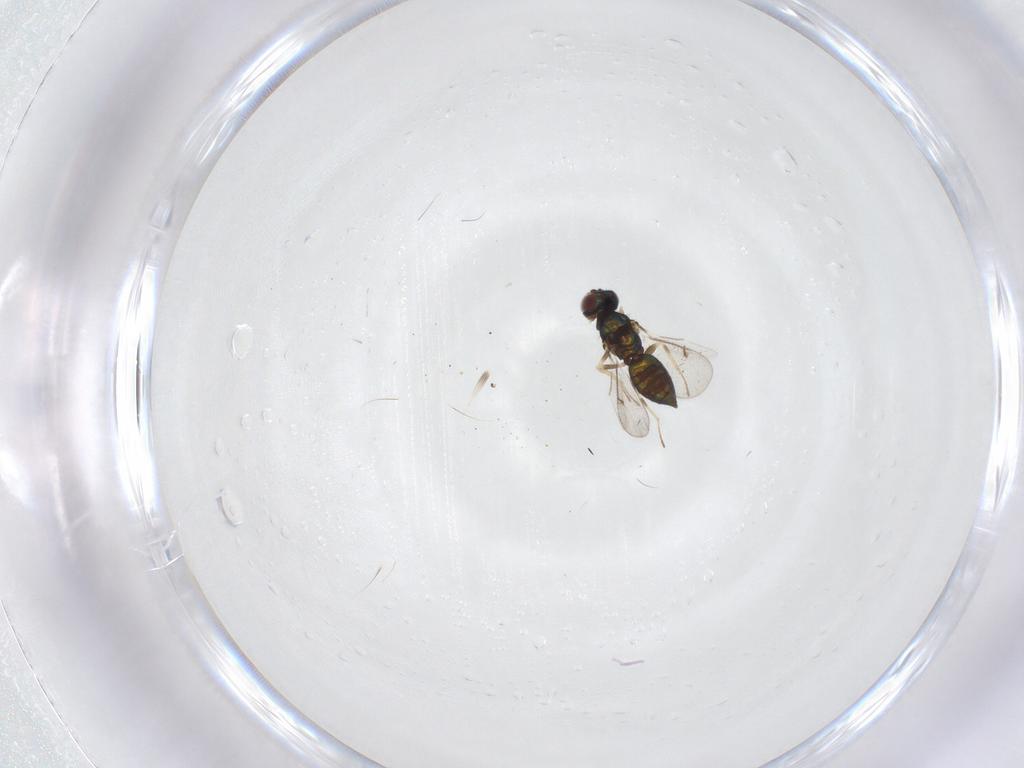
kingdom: Animalia
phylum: Arthropoda
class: Insecta
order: Hymenoptera
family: Eulophidae
